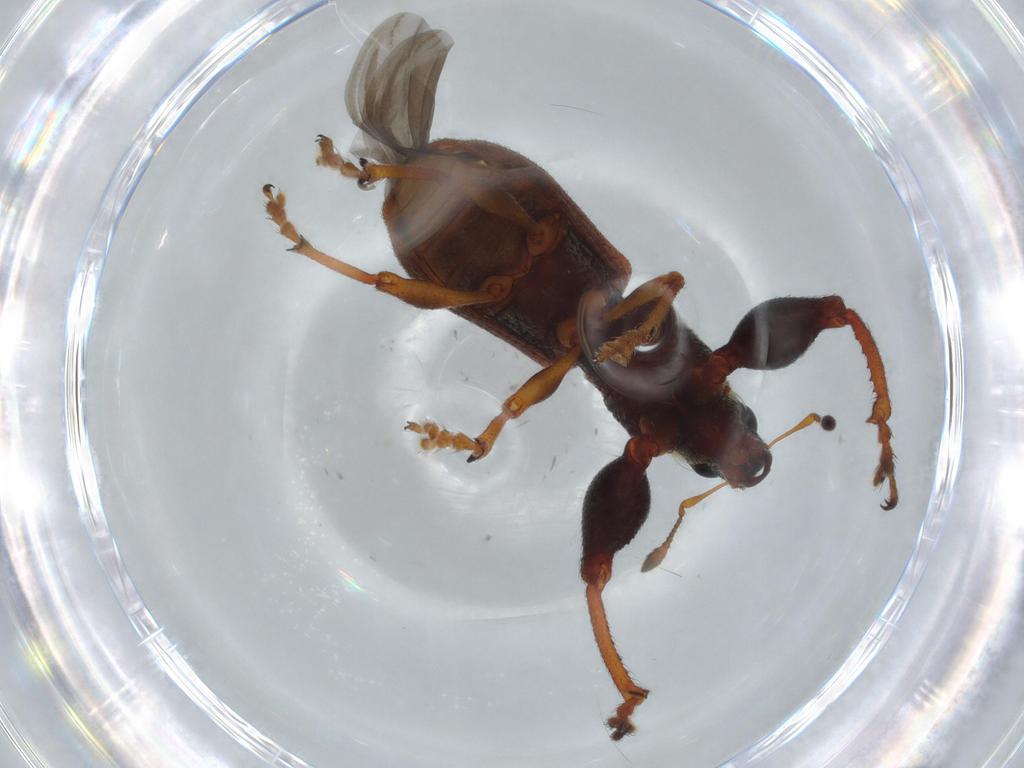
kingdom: Animalia
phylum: Arthropoda
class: Insecta
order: Coleoptera
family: Curculionidae
